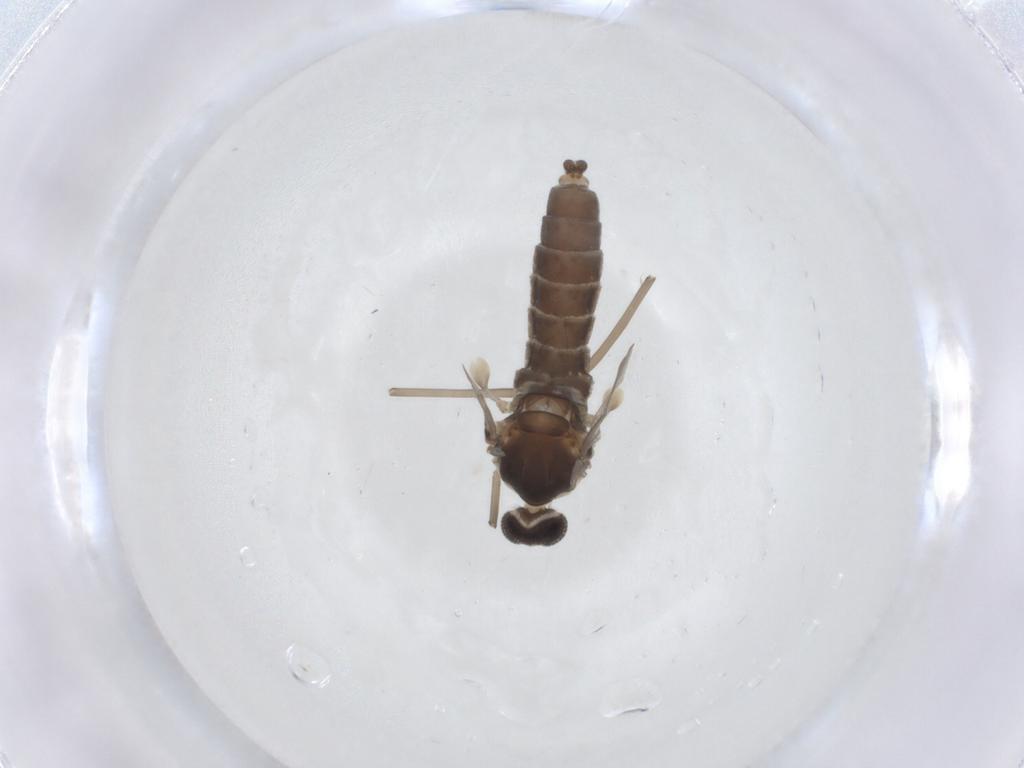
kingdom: Animalia
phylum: Arthropoda
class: Insecta
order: Diptera
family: Cecidomyiidae
